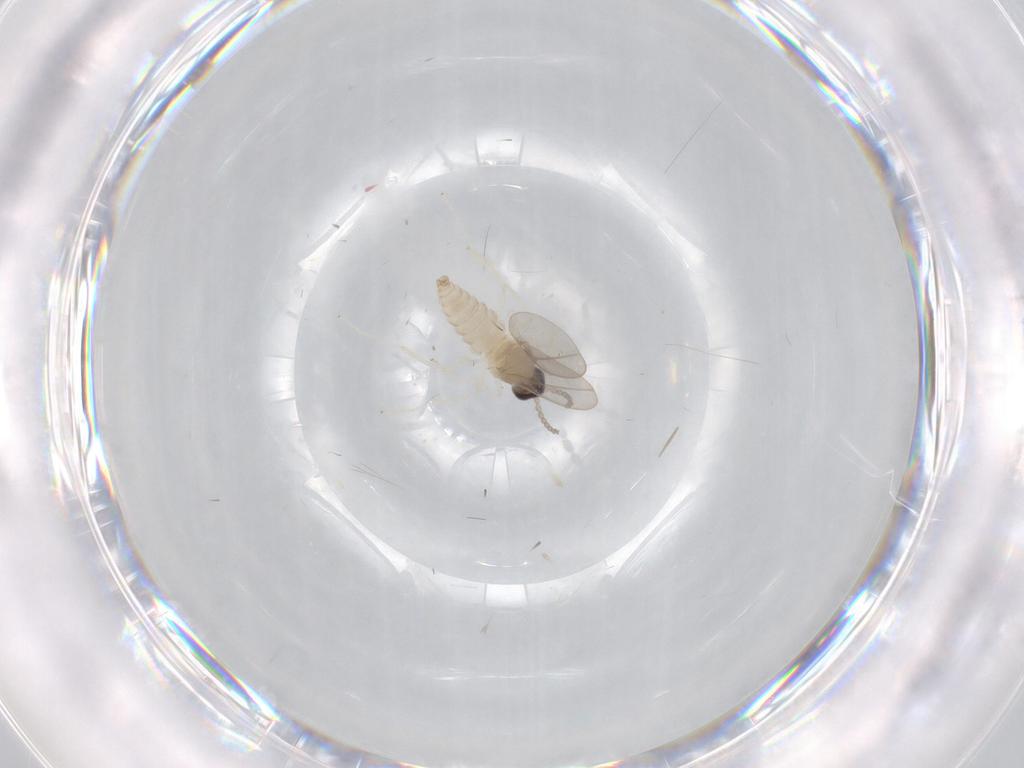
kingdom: Animalia
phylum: Arthropoda
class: Insecta
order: Diptera
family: Cecidomyiidae
